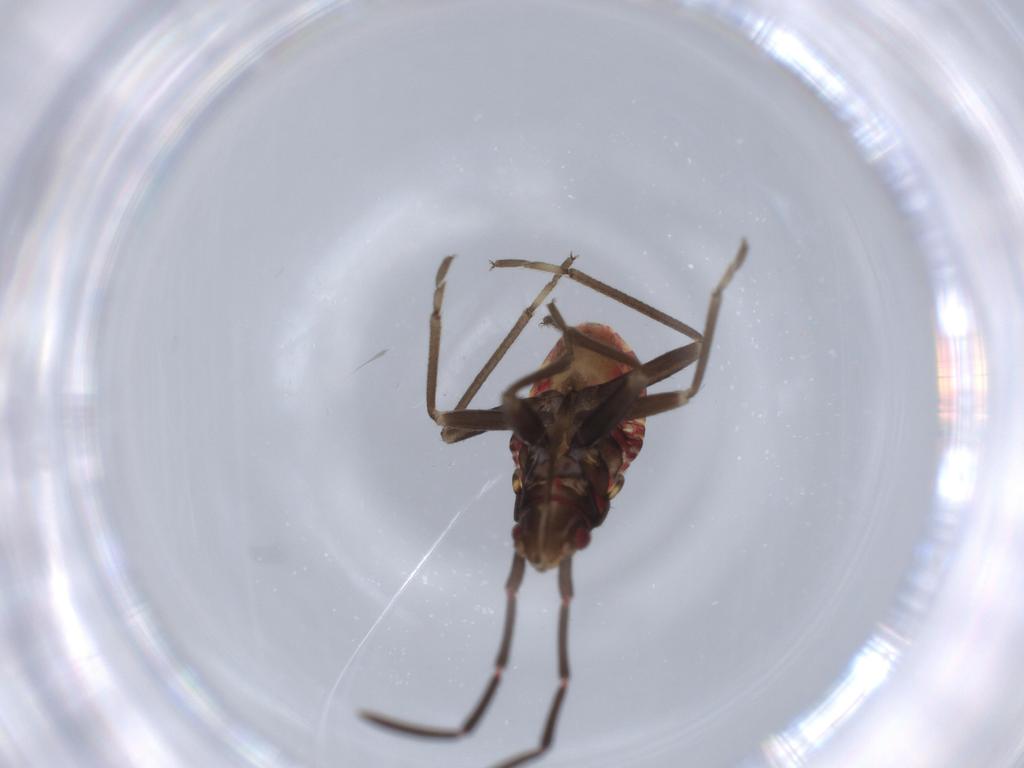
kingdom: Animalia
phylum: Arthropoda
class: Insecta
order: Hemiptera
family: Rhyparochromidae
